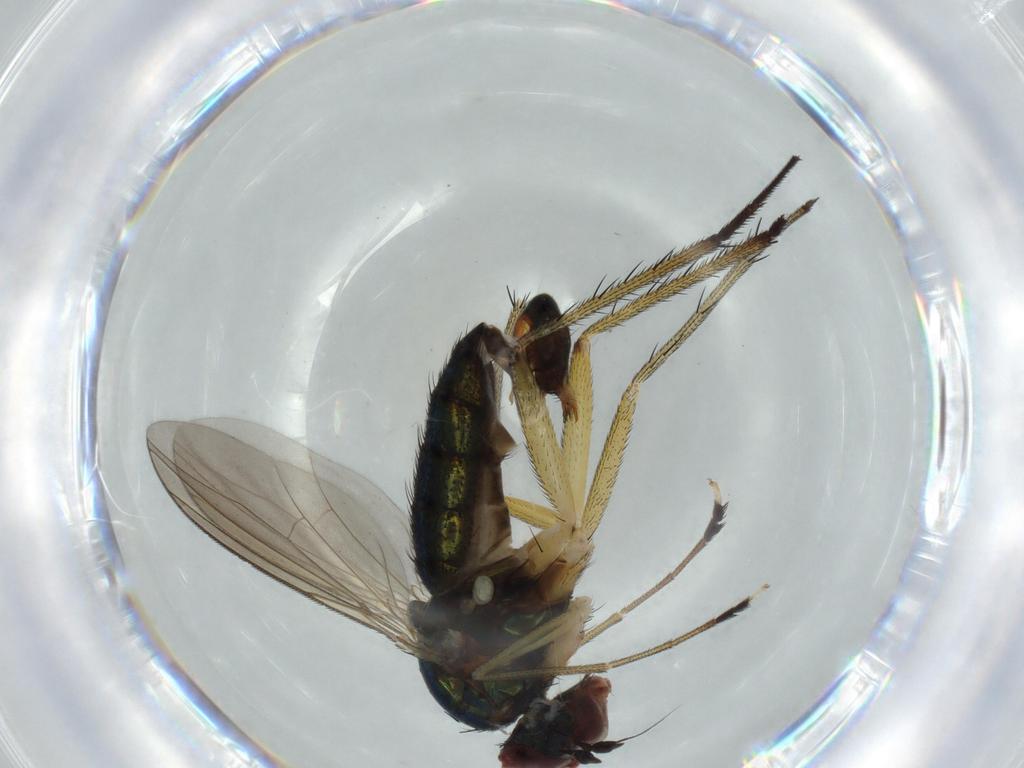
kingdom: Animalia
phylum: Arthropoda
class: Insecta
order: Diptera
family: Dolichopodidae
